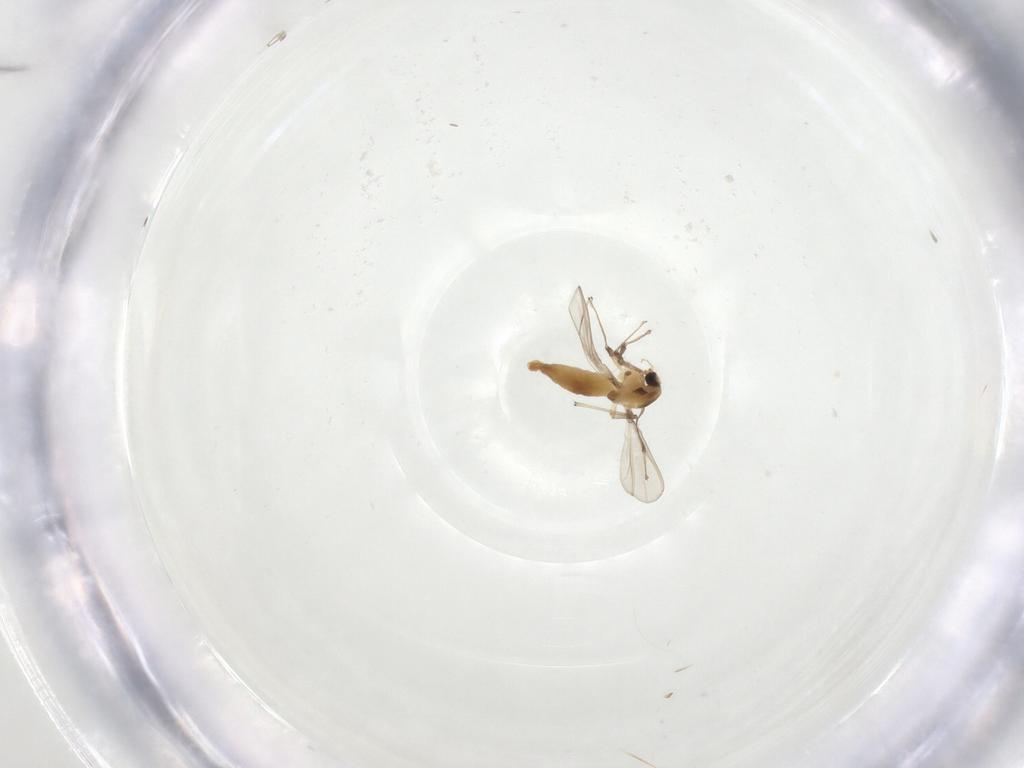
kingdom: Animalia
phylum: Arthropoda
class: Insecta
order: Diptera
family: Chironomidae
